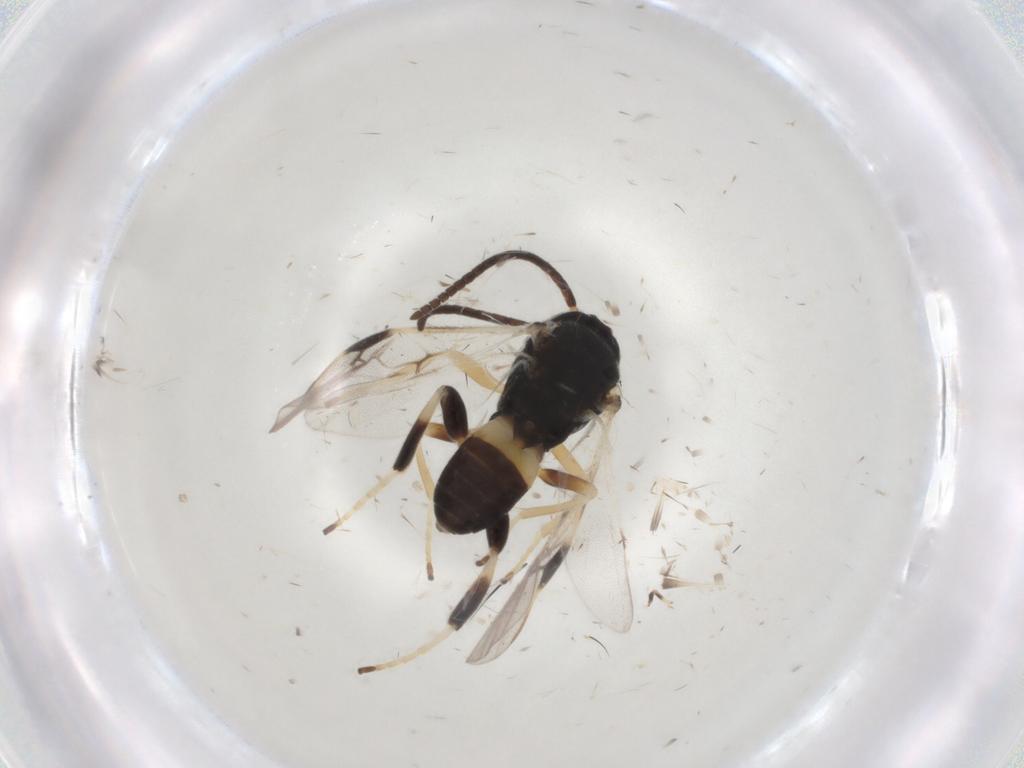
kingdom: Animalia
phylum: Arthropoda
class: Insecta
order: Hymenoptera
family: Braconidae
